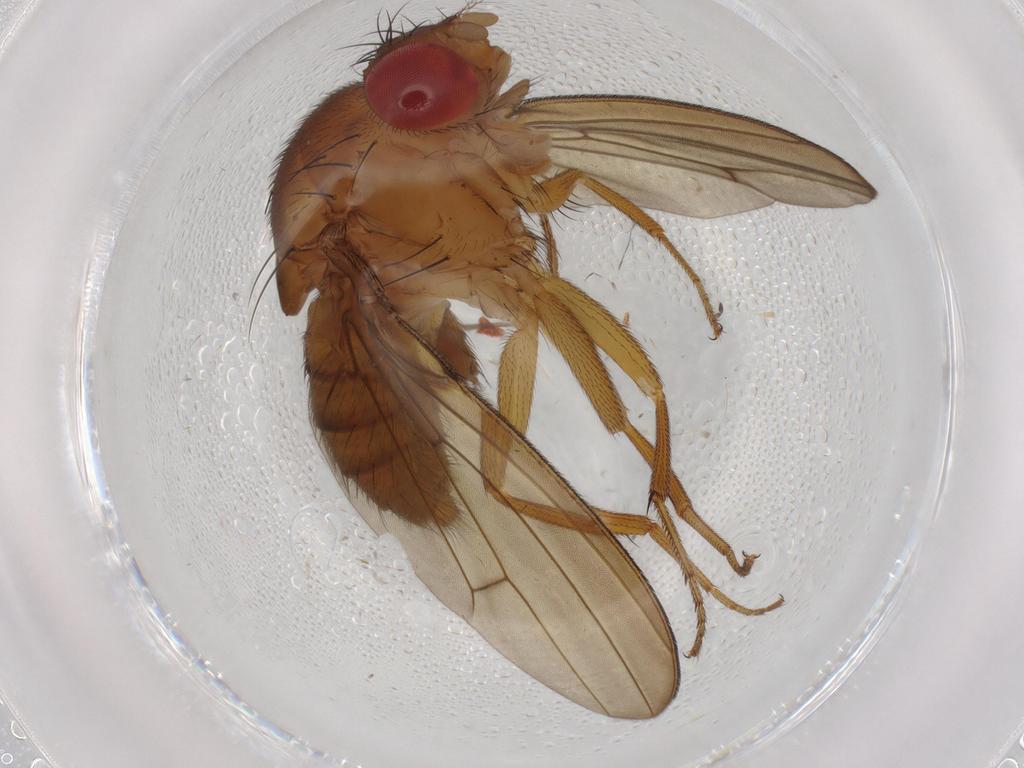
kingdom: Animalia
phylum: Arthropoda
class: Insecta
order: Diptera
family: Drosophilidae
